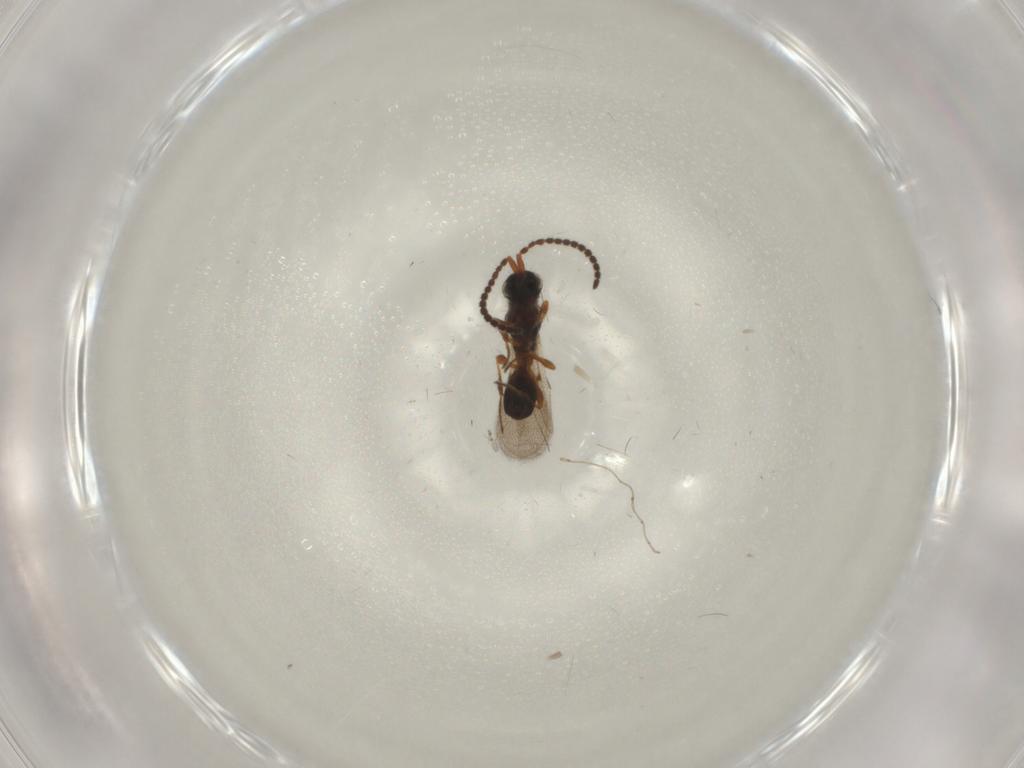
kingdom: Animalia
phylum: Arthropoda
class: Insecta
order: Hymenoptera
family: Diapriidae
